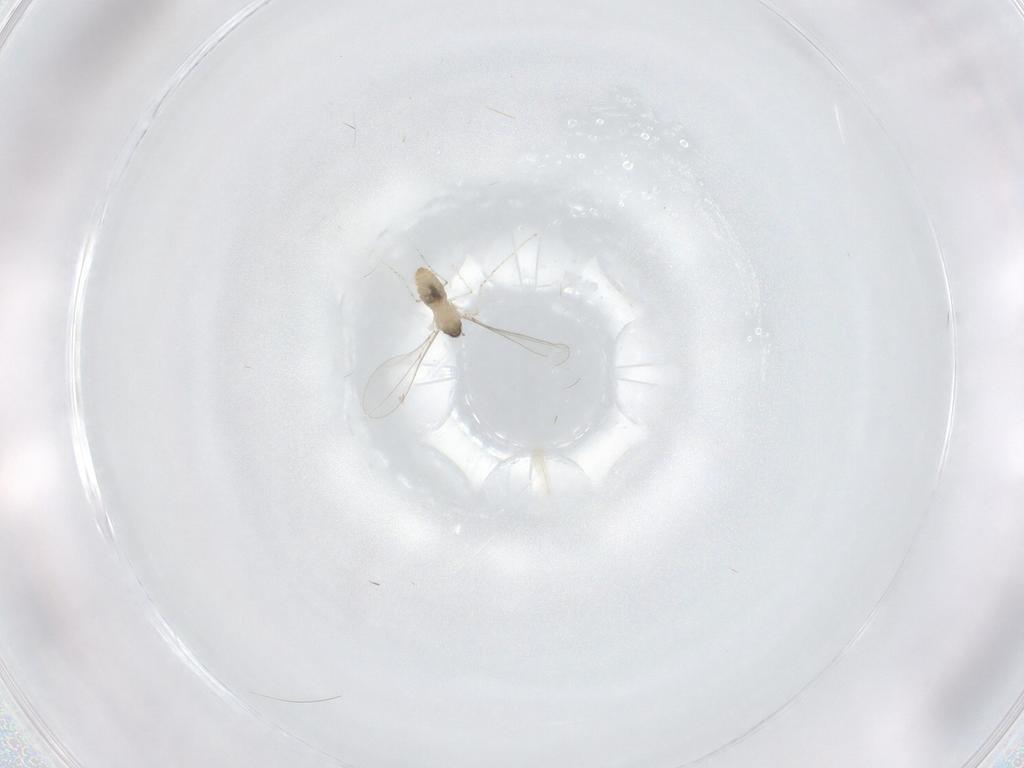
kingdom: Animalia
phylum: Arthropoda
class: Insecta
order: Diptera
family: Cecidomyiidae
